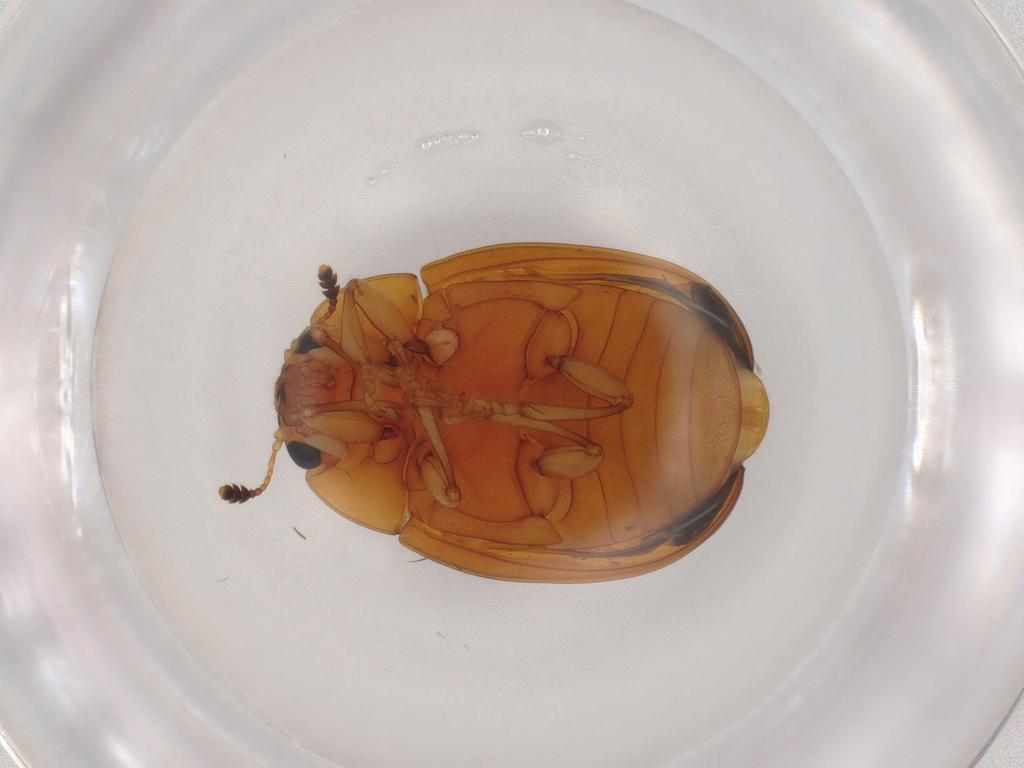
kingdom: Animalia
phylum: Arthropoda
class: Insecta
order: Coleoptera
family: Erotylidae
